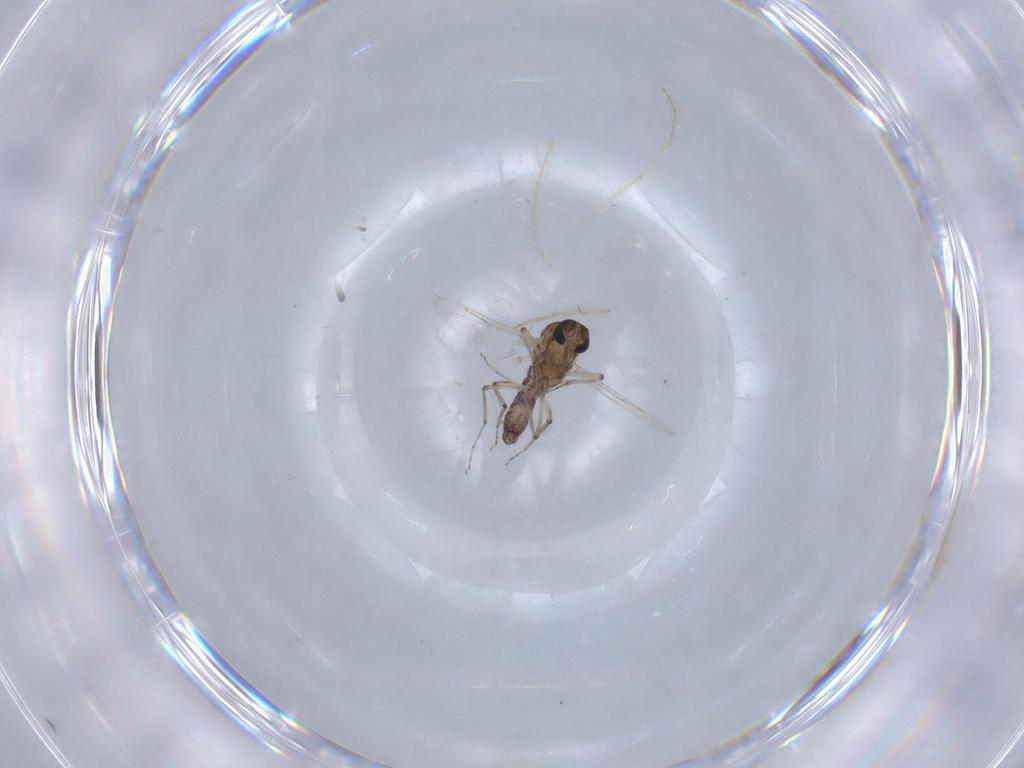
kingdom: Animalia
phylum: Arthropoda
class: Insecta
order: Diptera
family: Ceratopogonidae
